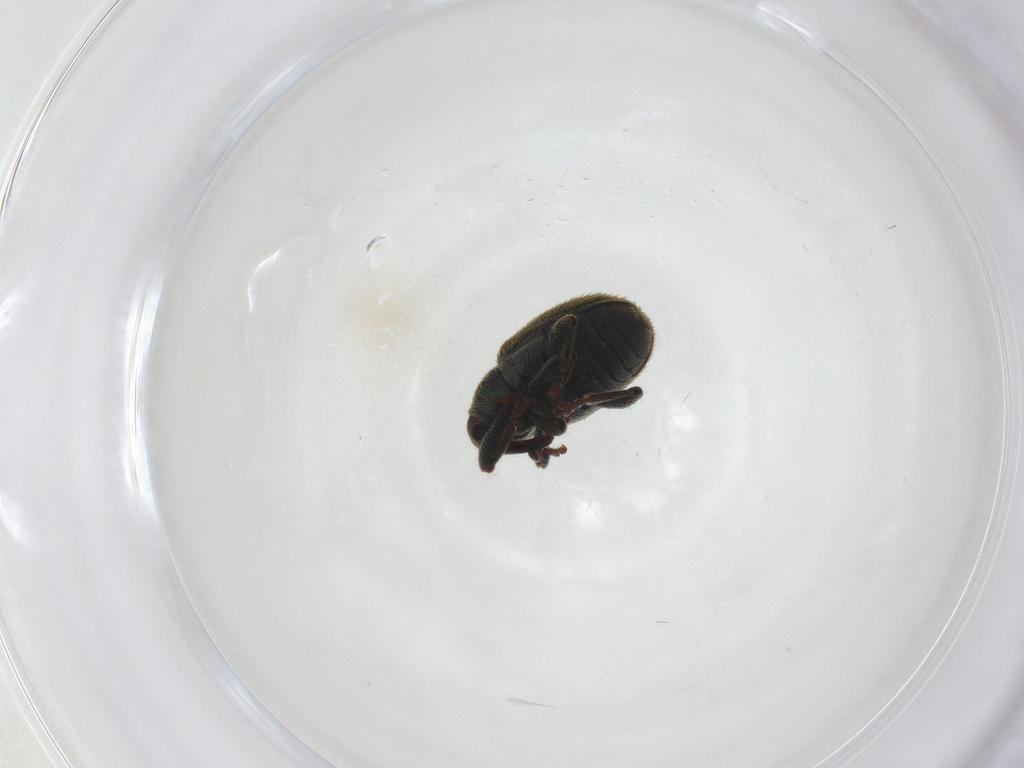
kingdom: Animalia
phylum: Arthropoda
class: Insecta
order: Coleoptera
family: Curculionidae
